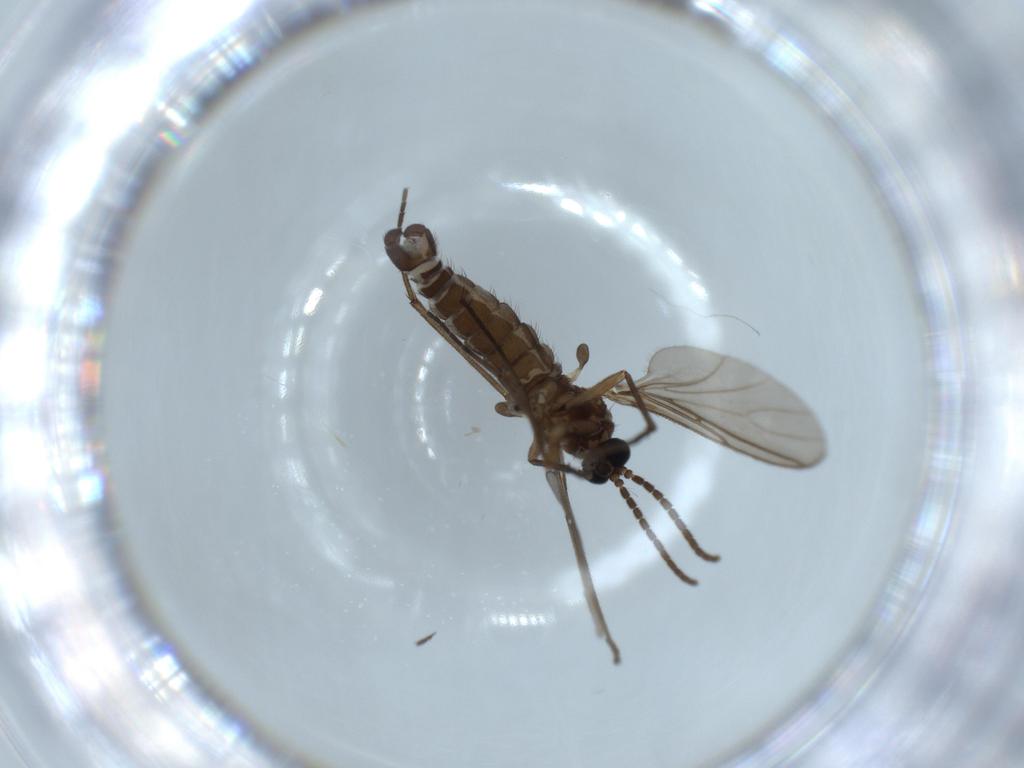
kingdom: Animalia
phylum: Arthropoda
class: Insecta
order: Diptera
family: Sciaridae
